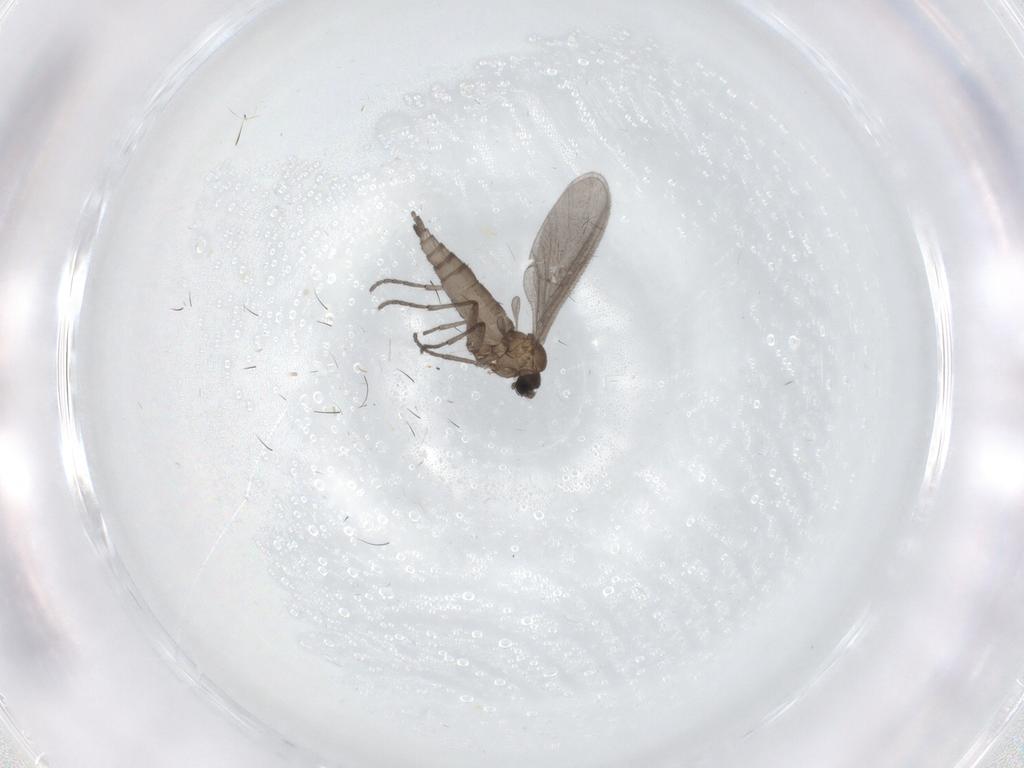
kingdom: Animalia
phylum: Arthropoda
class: Insecta
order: Diptera
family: Sciaridae
